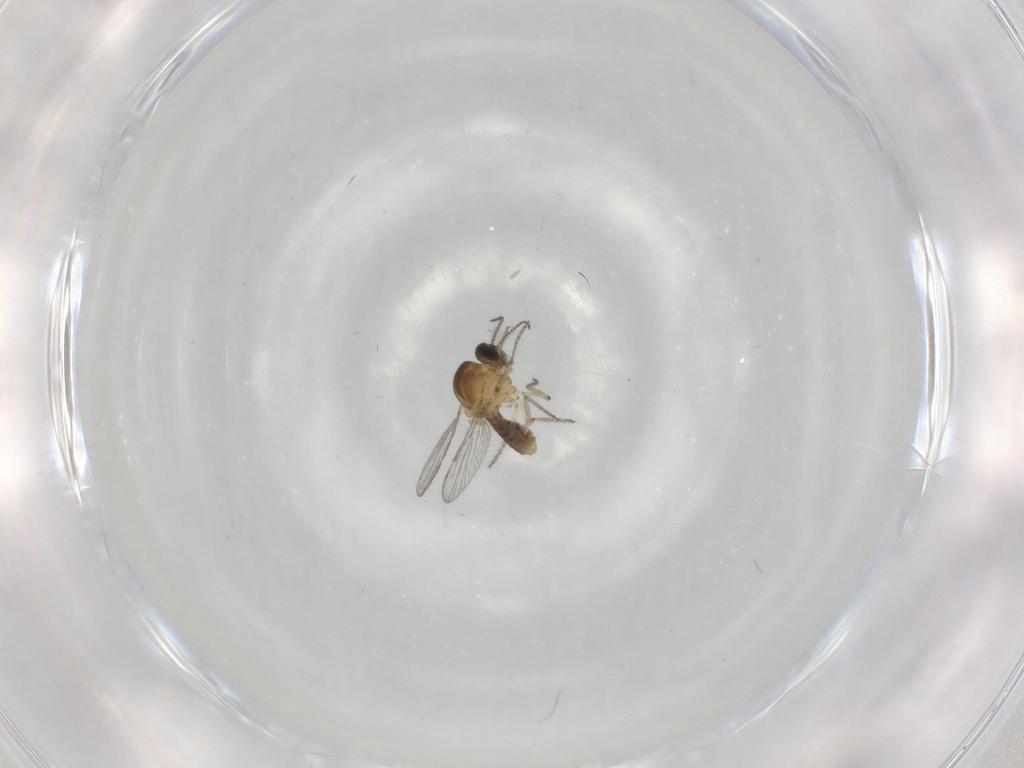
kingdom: Animalia
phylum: Arthropoda
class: Insecta
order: Diptera
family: Ceratopogonidae
